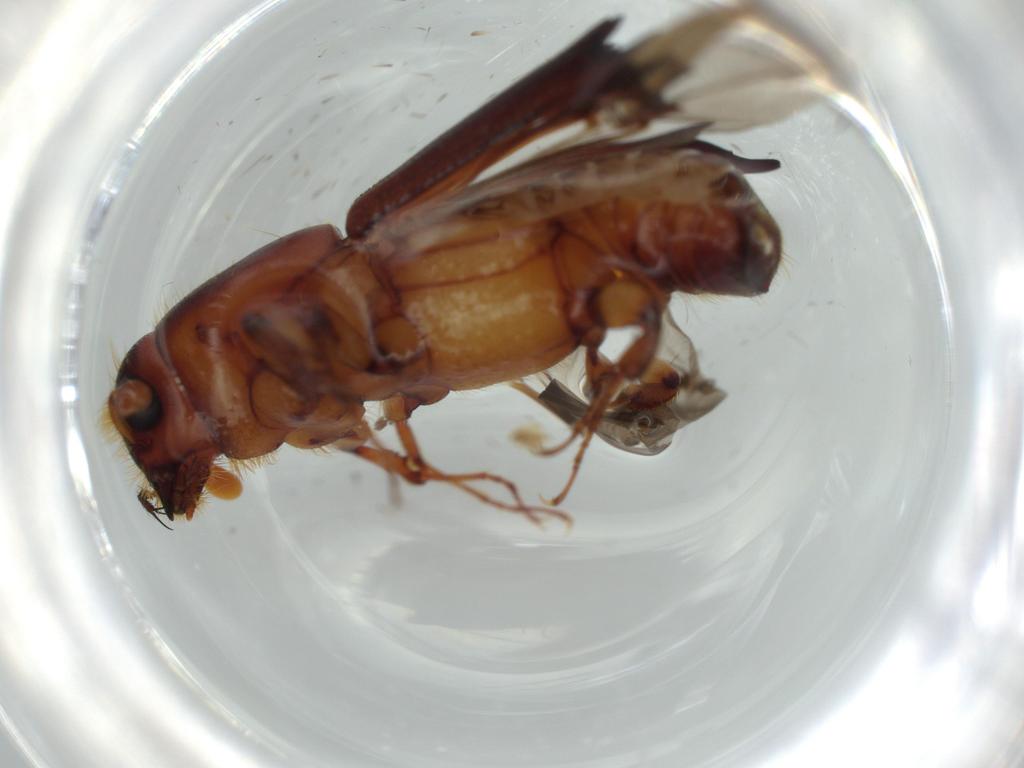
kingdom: Animalia
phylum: Arthropoda
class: Insecta
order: Coleoptera
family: Curculionidae
